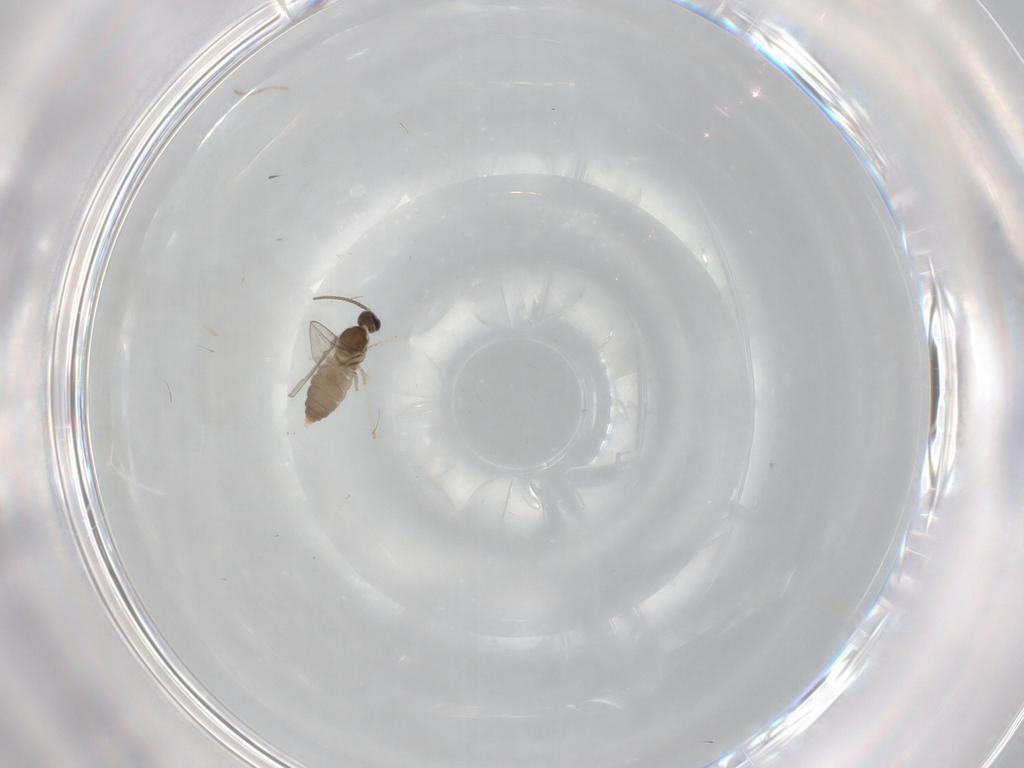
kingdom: Animalia
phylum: Arthropoda
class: Insecta
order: Diptera
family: Cecidomyiidae
